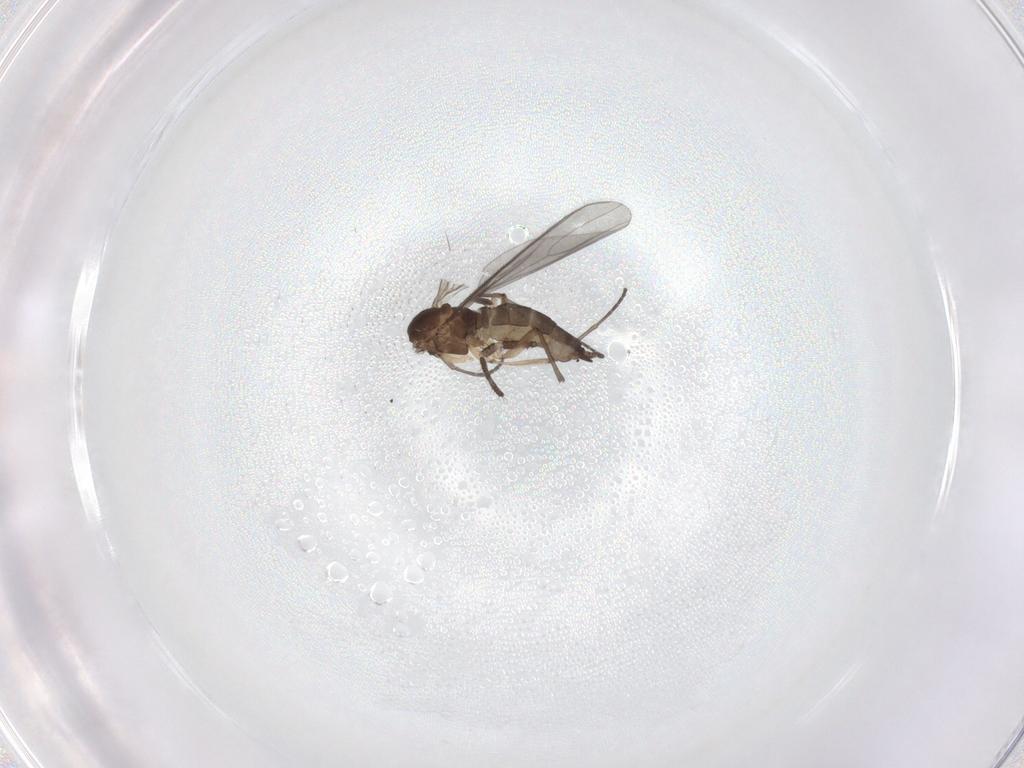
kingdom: Animalia
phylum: Arthropoda
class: Insecta
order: Diptera
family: Sciaridae
